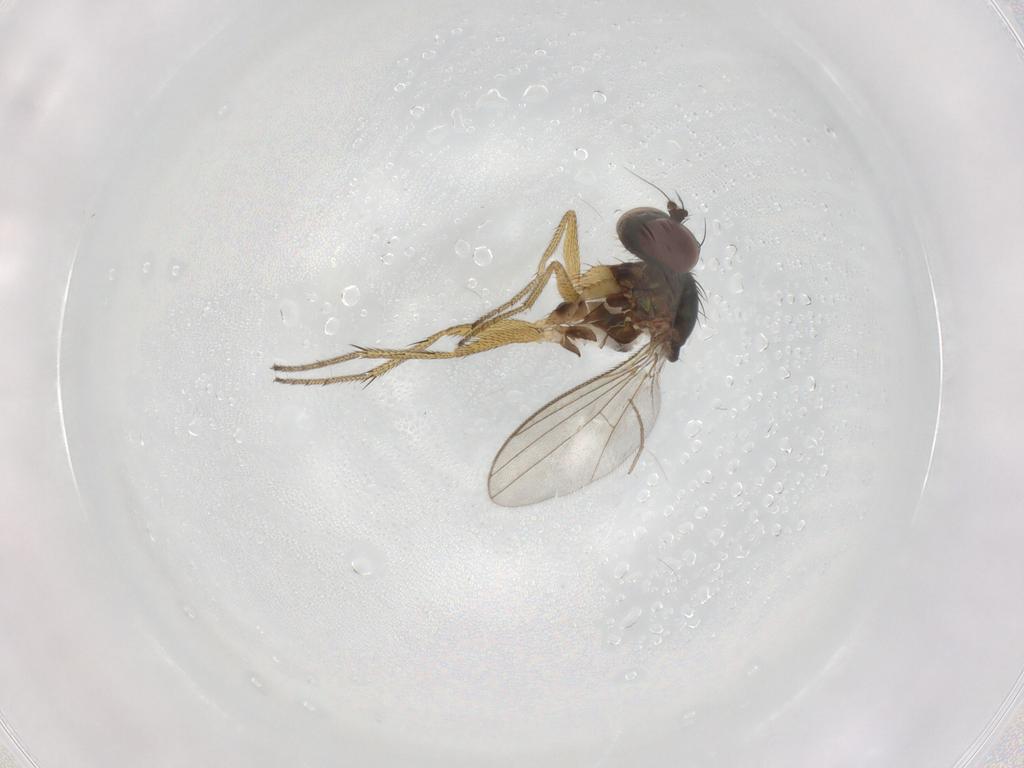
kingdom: Animalia
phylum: Arthropoda
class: Insecta
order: Diptera
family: Dolichopodidae
